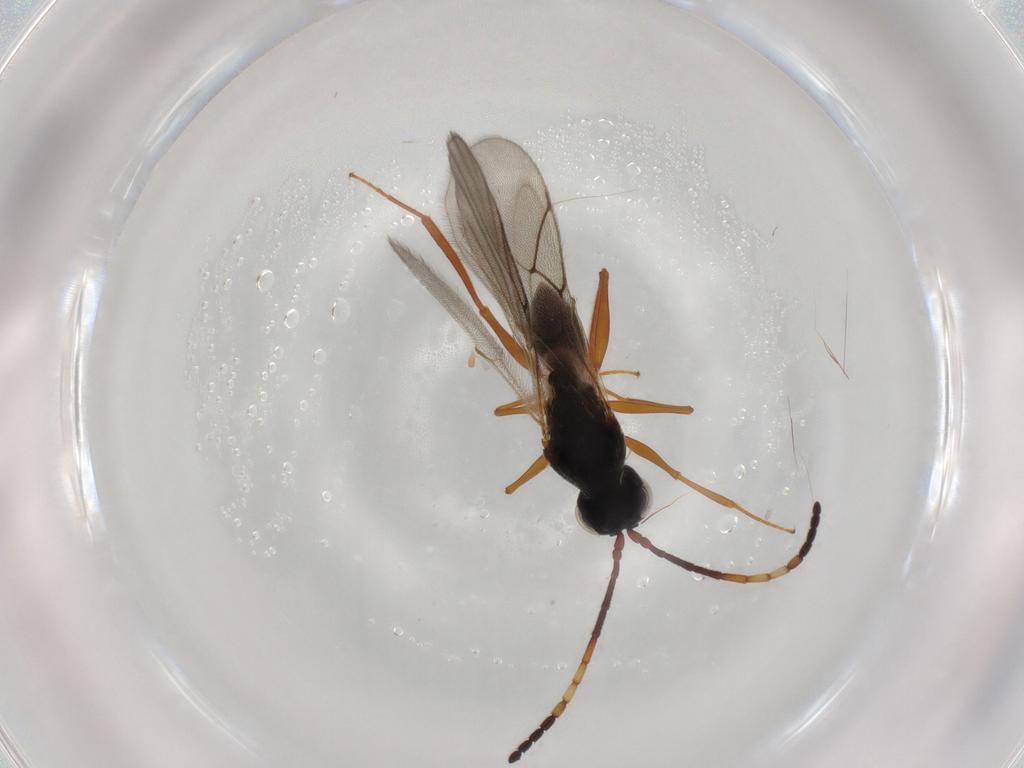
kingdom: Animalia
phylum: Arthropoda
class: Insecta
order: Hymenoptera
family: Figitidae
